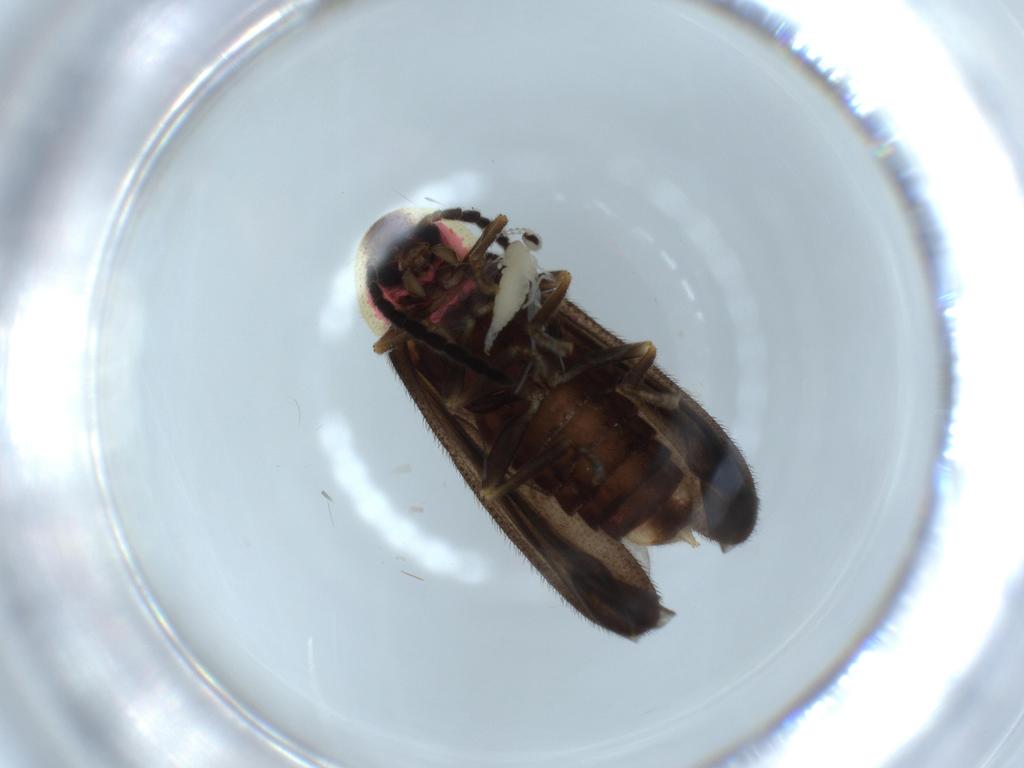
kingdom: Animalia
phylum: Arthropoda
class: Insecta
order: Diptera
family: Cecidomyiidae
